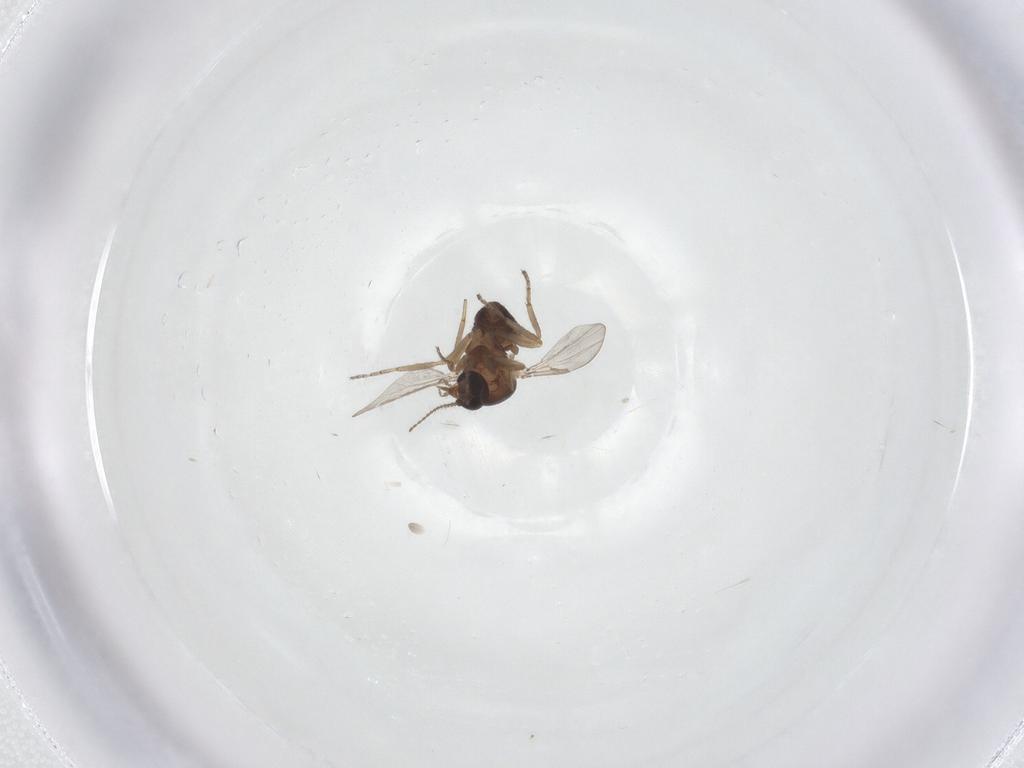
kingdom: Animalia
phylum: Arthropoda
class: Insecta
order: Diptera
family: Ceratopogonidae
